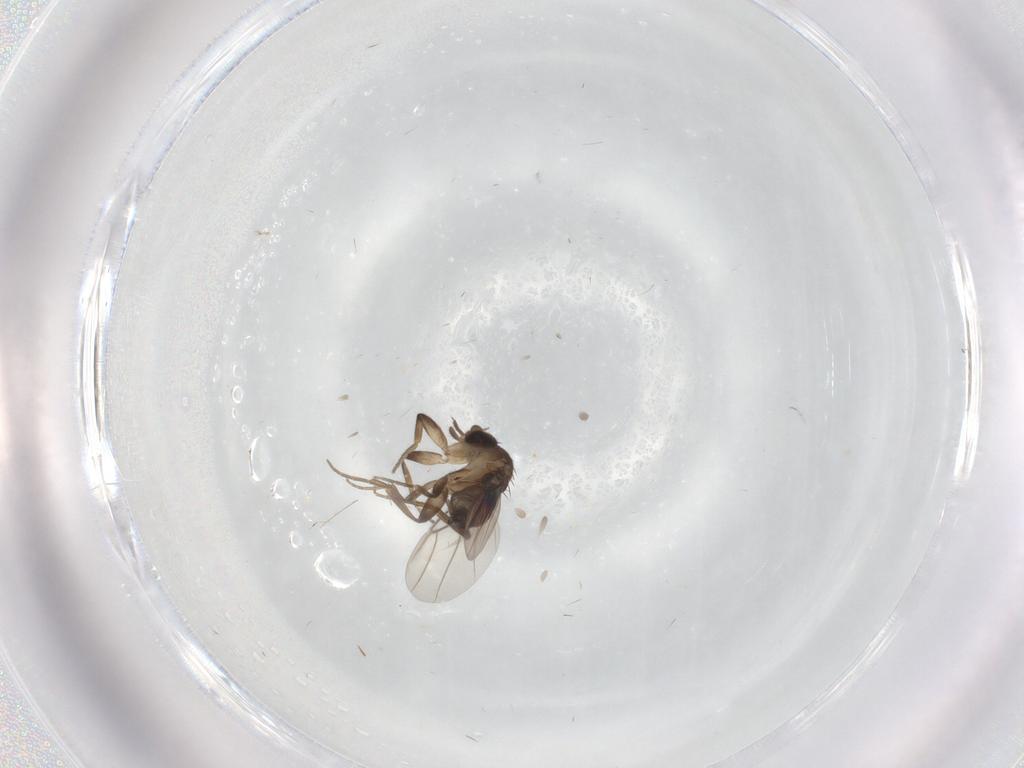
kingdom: Animalia
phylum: Arthropoda
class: Insecta
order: Diptera
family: Phoridae
